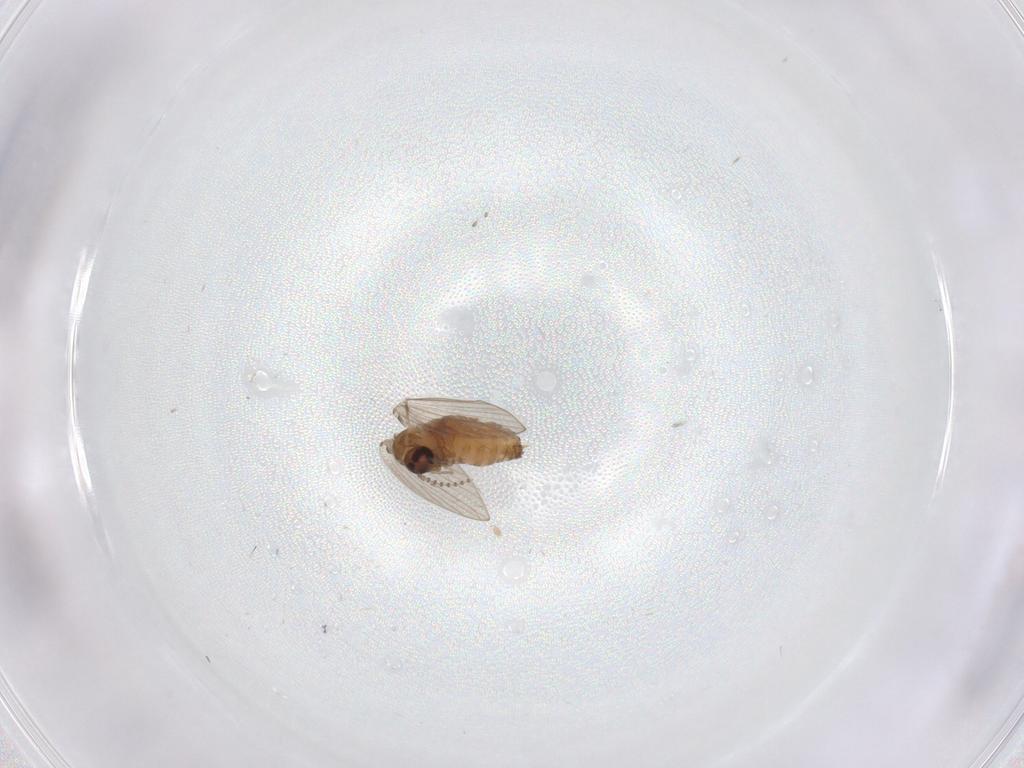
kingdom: Animalia
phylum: Arthropoda
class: Insecta
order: Diptera
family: Psychodidae
